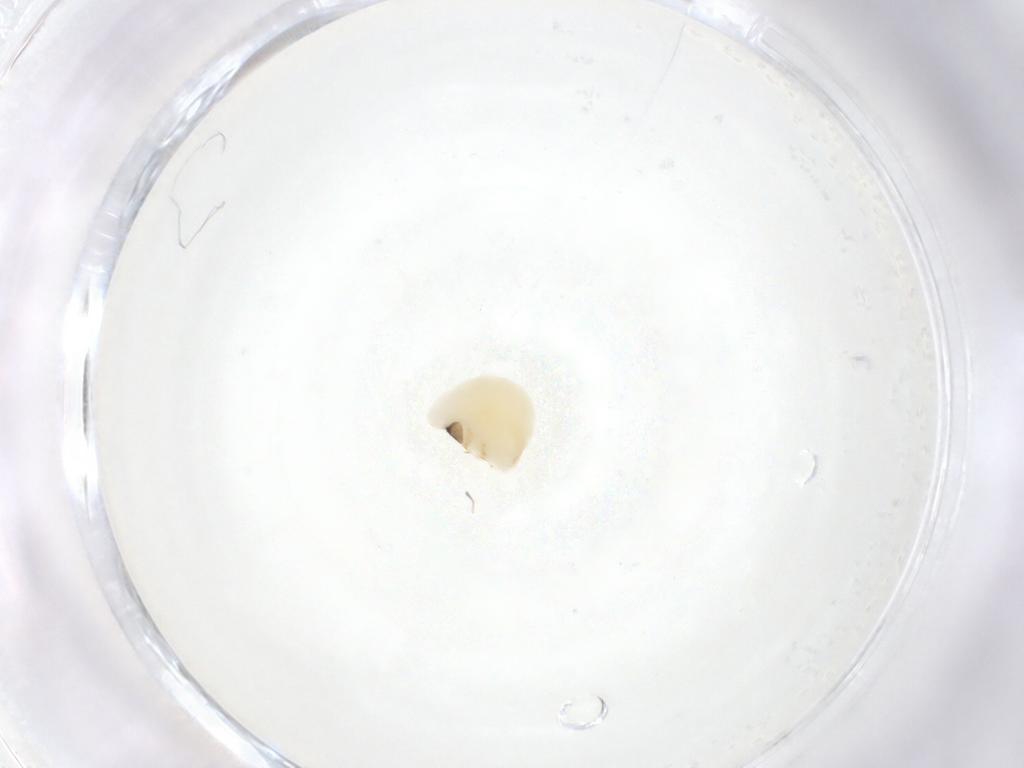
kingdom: Animalia
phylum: Arthropoda
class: Insecta
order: Hymenoptera
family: Eulophidae
